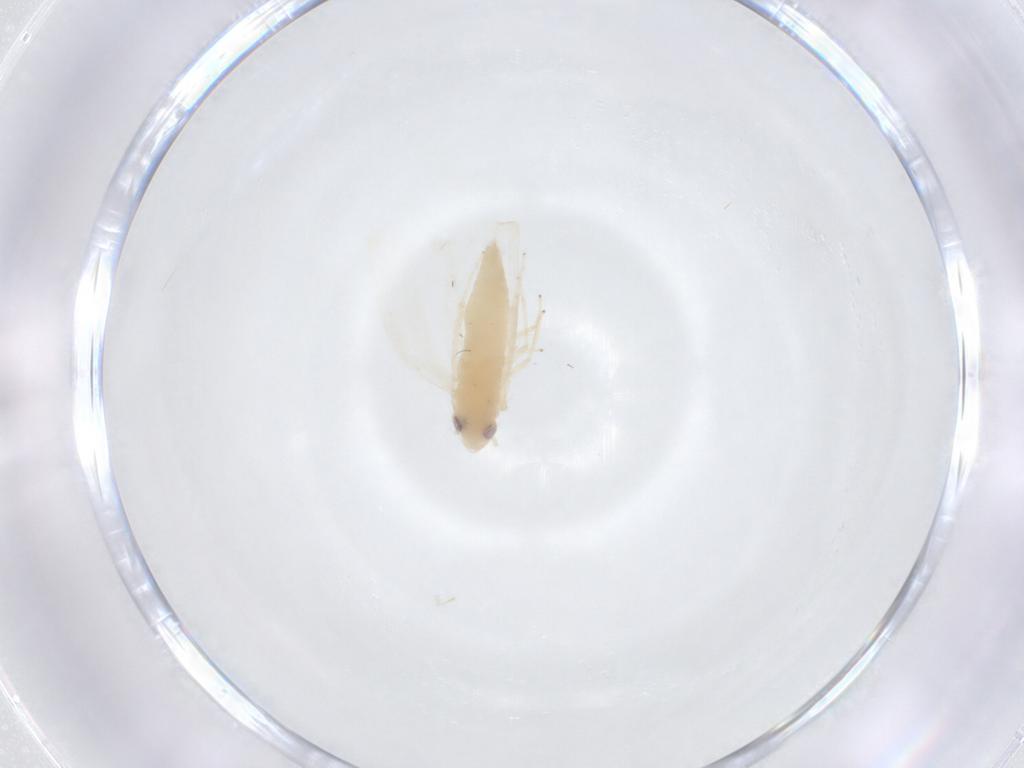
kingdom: Animalia
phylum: Arthropoda
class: Insecta
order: Hemiptera
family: Cicadellidae
